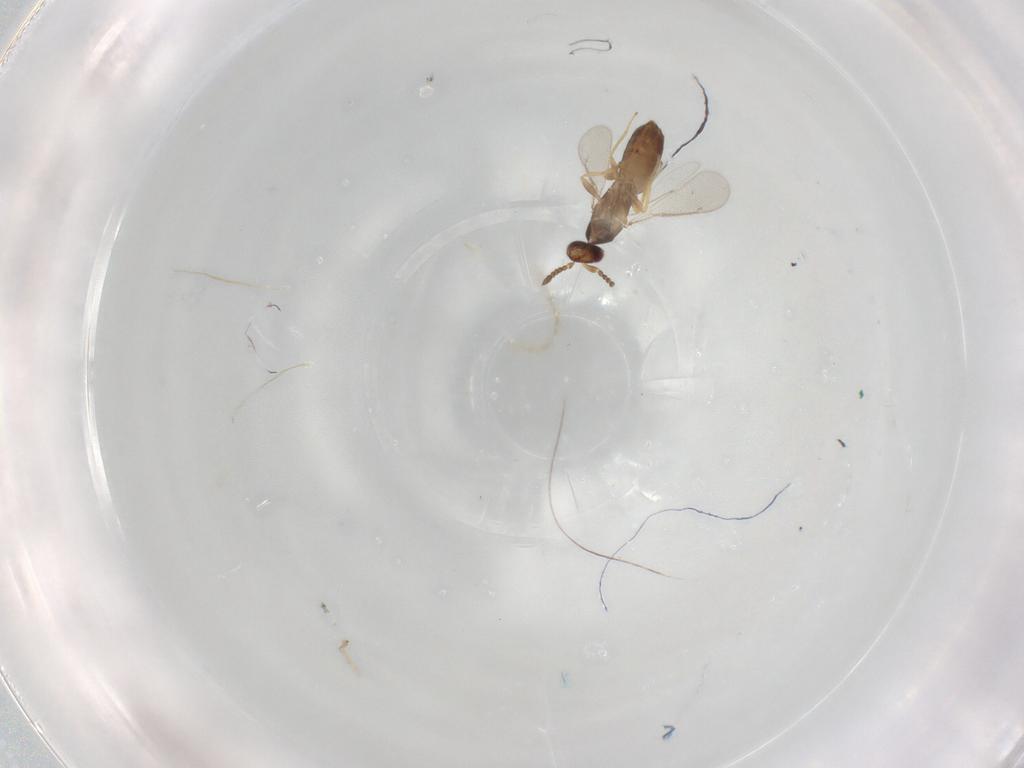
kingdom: Animalia
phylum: Arthropoda
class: Insecta
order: Hymenoptera
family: Eulophidae
